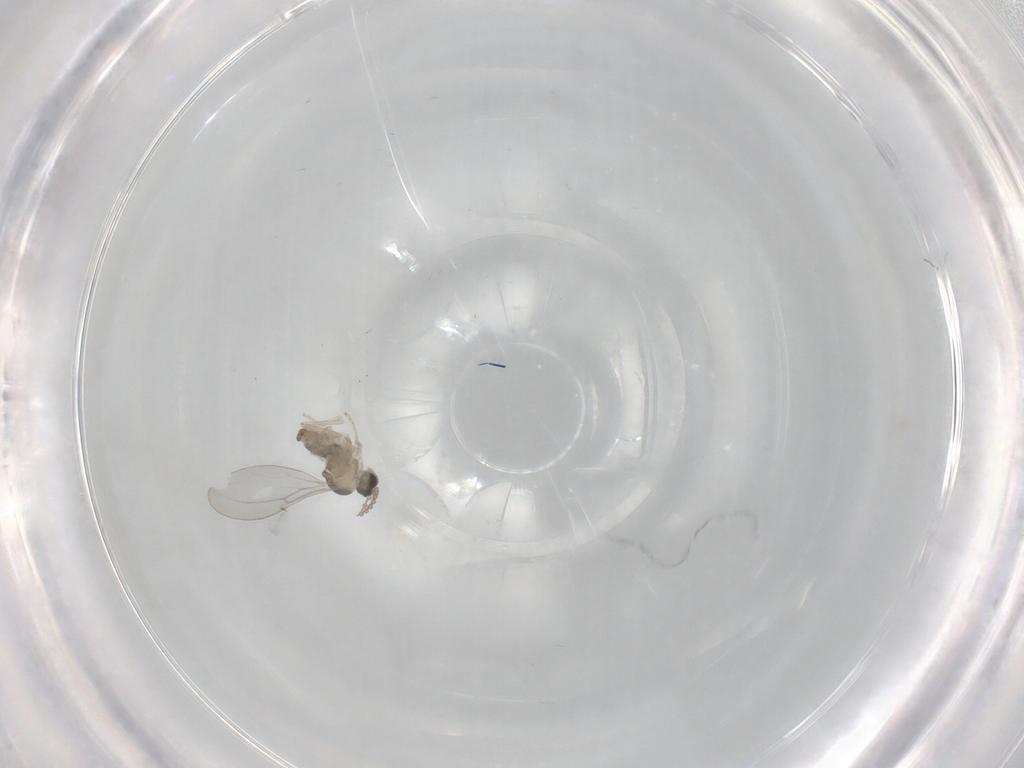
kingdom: Animalia
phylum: Arthropoda
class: Insecta
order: Diptera
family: Cecidomyiidae
